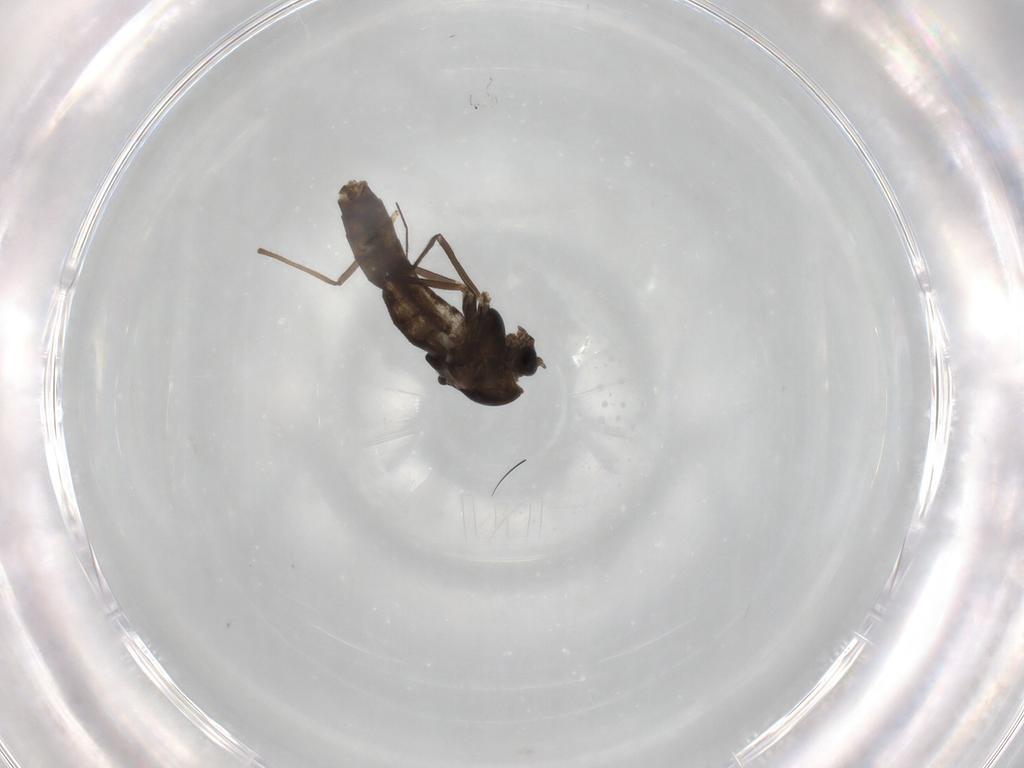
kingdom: Animalia
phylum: Arthropoda
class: Insecta
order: Diptera
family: Chironomidae
